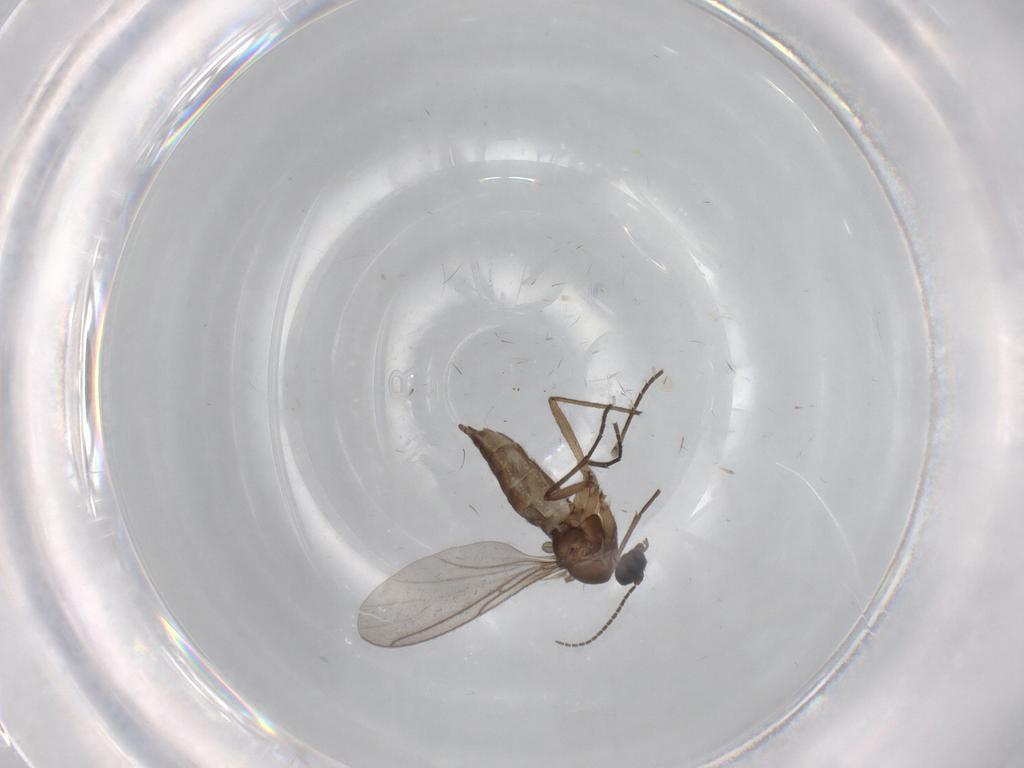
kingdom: Animalia
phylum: Arthropoda
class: Insecta
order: Diptera
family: Sciaridae
